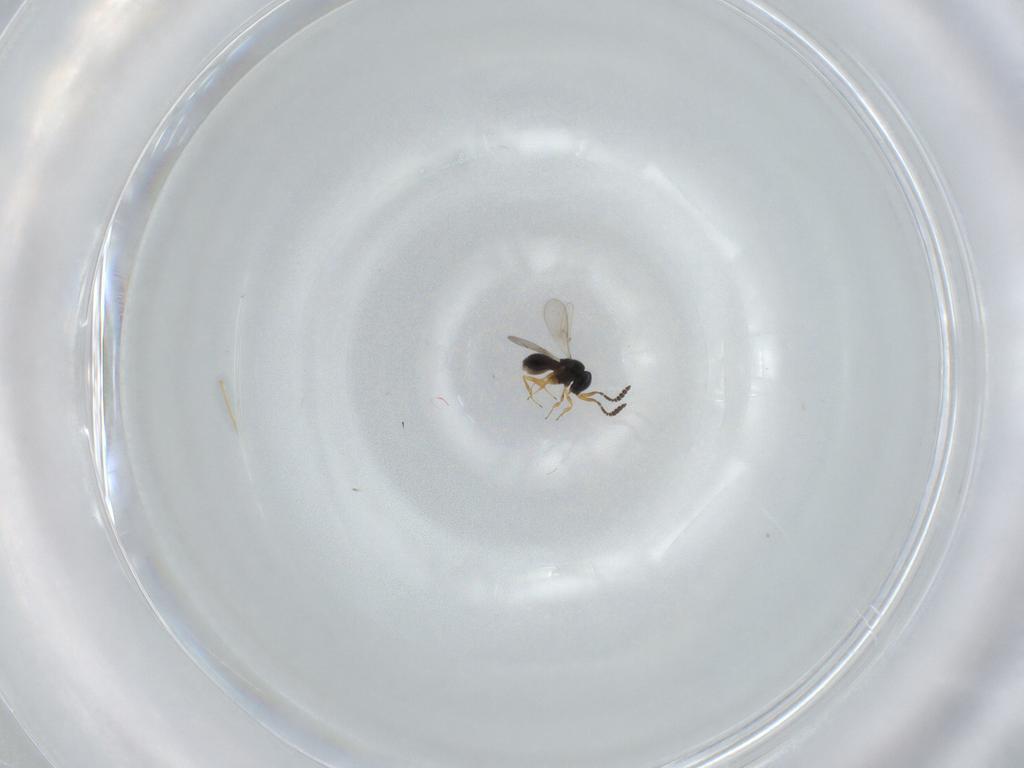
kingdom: Animalia
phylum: Arthropoda
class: Insecta
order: Hymenoptera
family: Scelionidae
